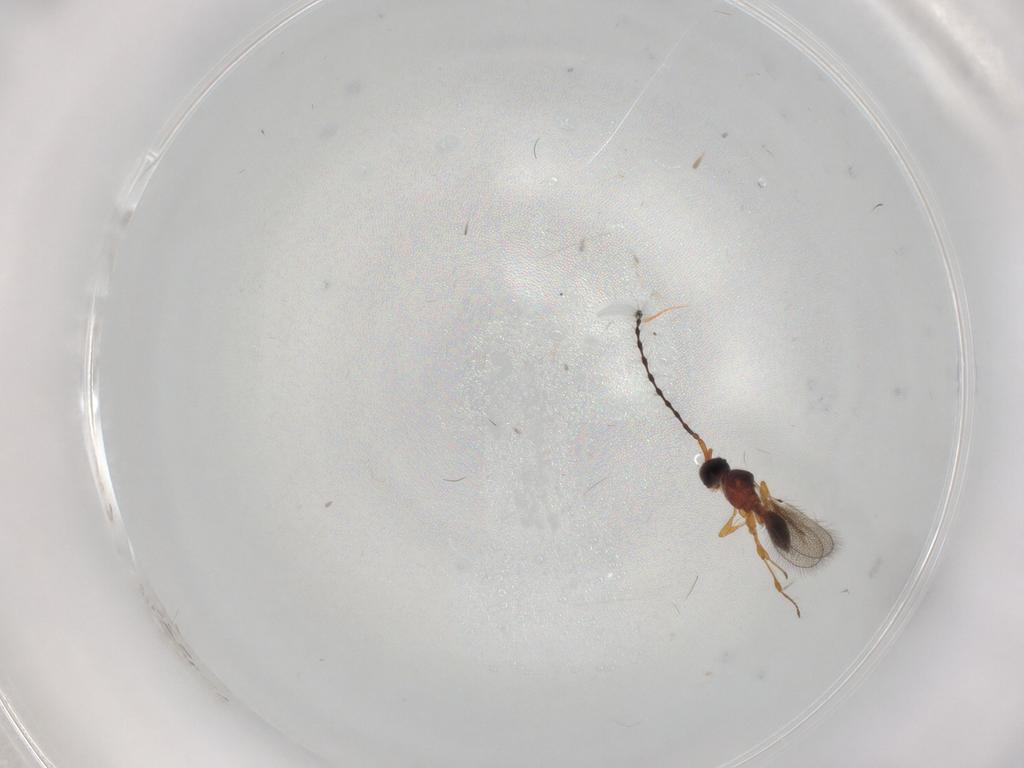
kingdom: Animalia
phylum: Arthropoda
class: Insecta
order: Hymenoptera
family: Diapriidae
